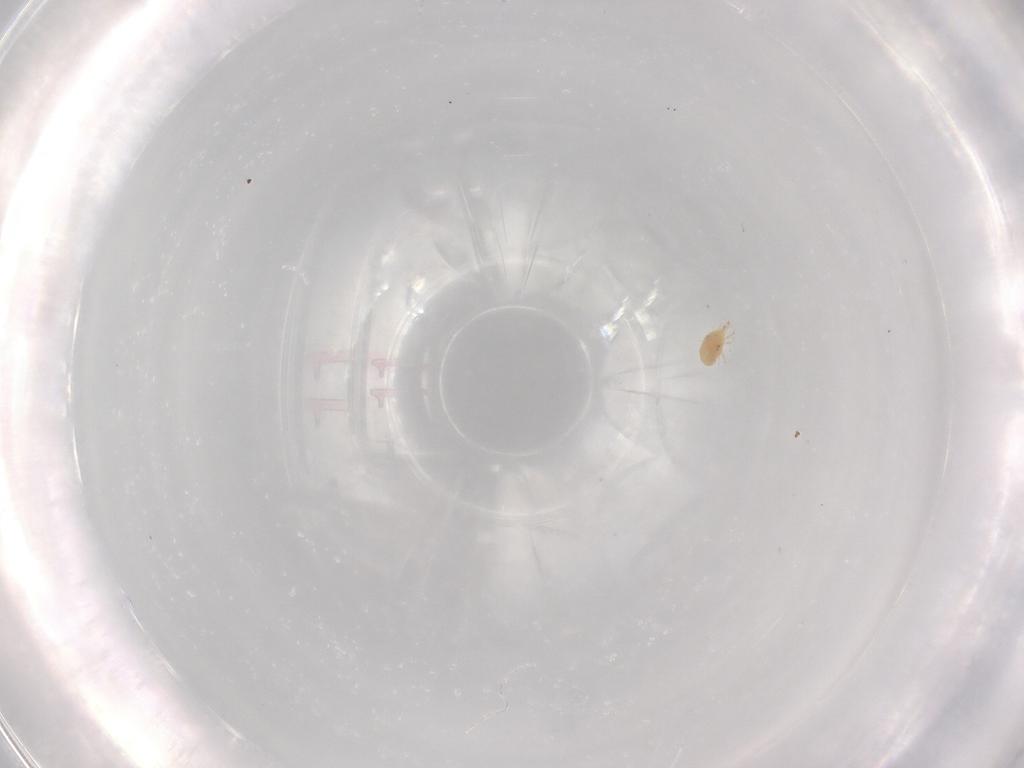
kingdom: Animalia
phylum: Arthropoda
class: Arachnida
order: Trombidiformes
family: Bdellidae
